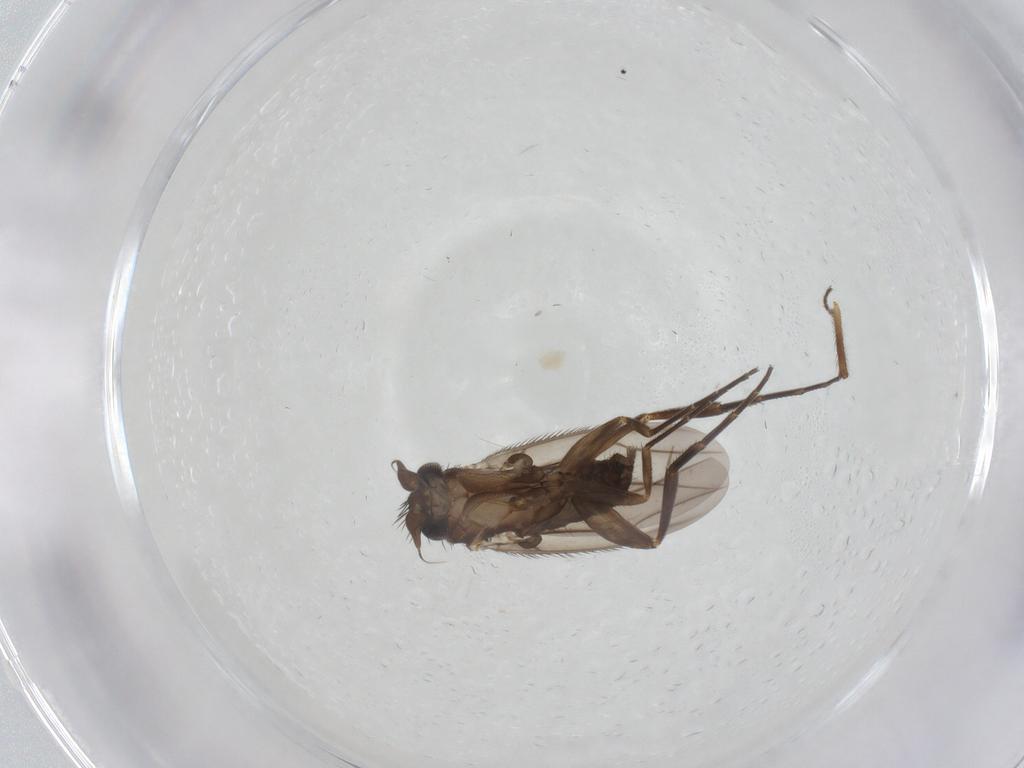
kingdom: Animalia
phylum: Arthropoda
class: Insecta
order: Diptera
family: Phoridae
